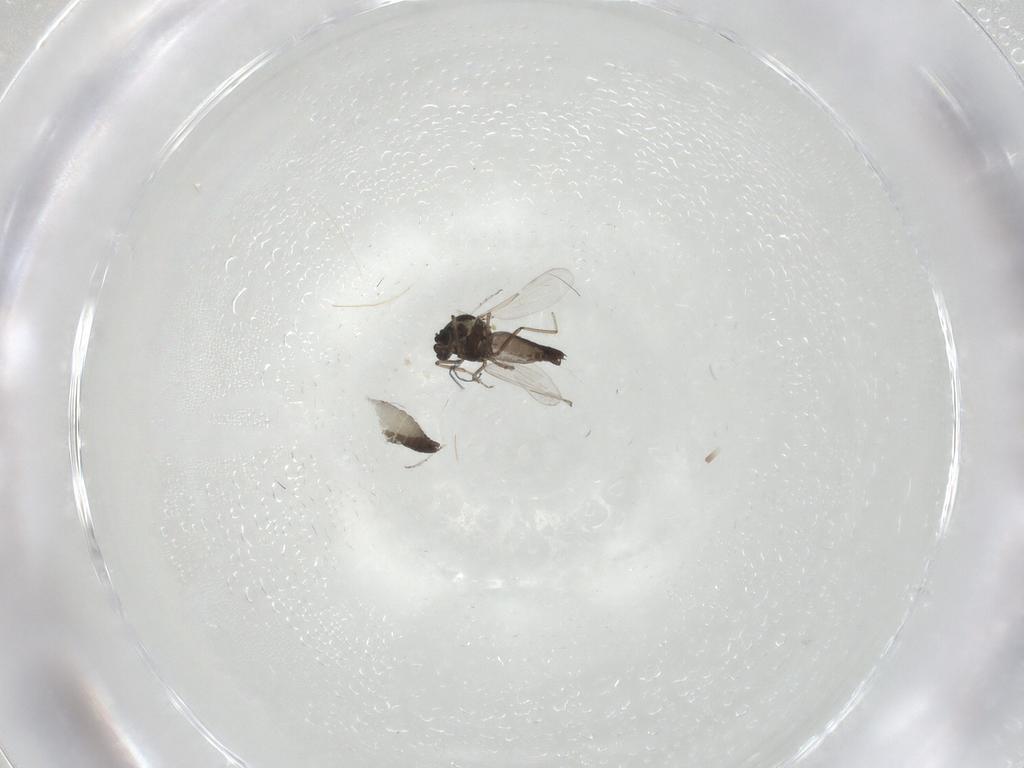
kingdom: Animalia
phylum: Arthropoda
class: Insecta
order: Diptera
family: Ceratopogonidae
